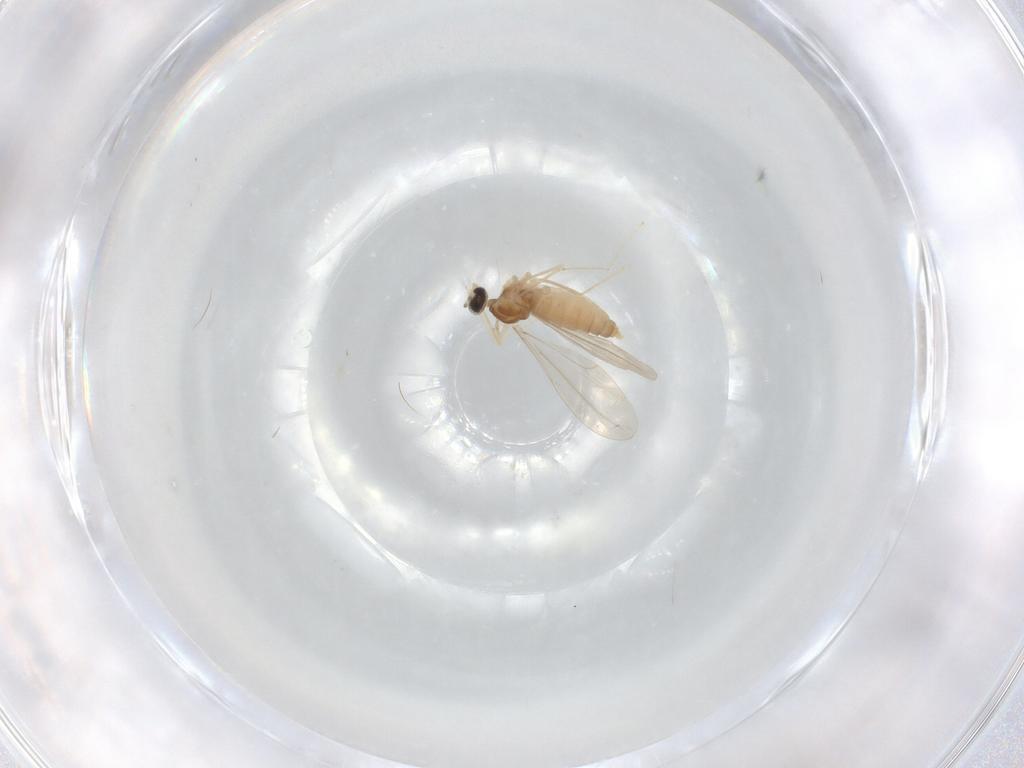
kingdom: Animalia
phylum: Arthropoda
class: Insecta
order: Diptera
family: Cecidomyiidae
